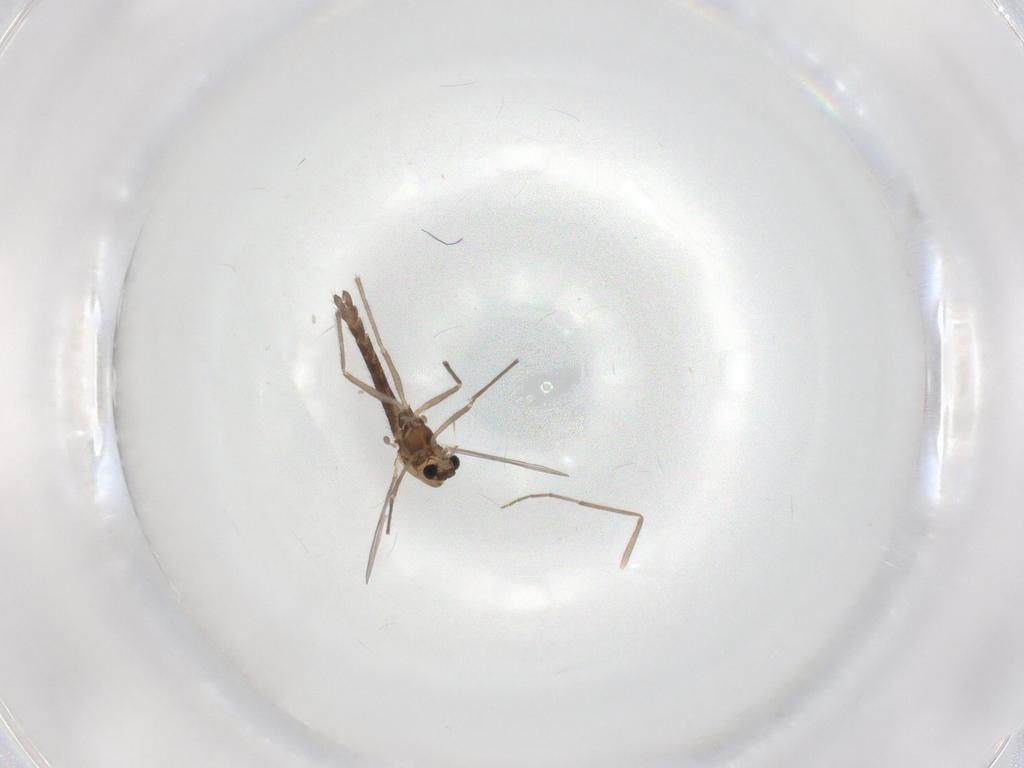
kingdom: Animalia
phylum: Arthropoda
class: Insecta
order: Diptera
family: Chironomidae
